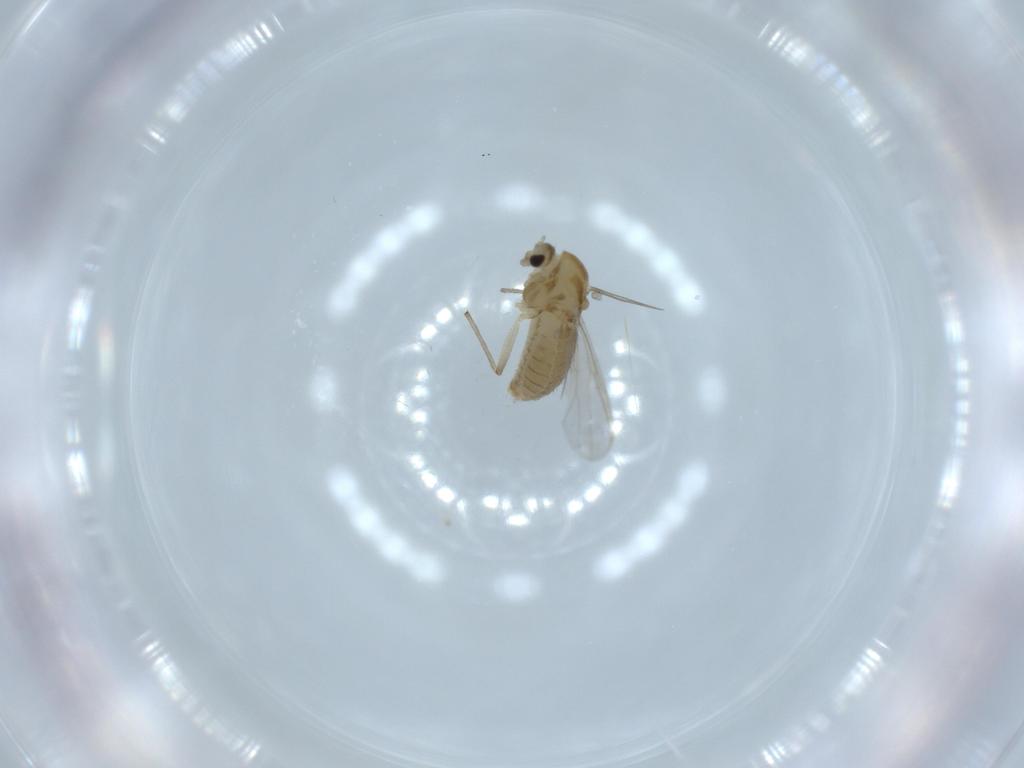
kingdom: Animalia
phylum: Arthropoda
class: Insecta
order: Diptera
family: Chironomidae
